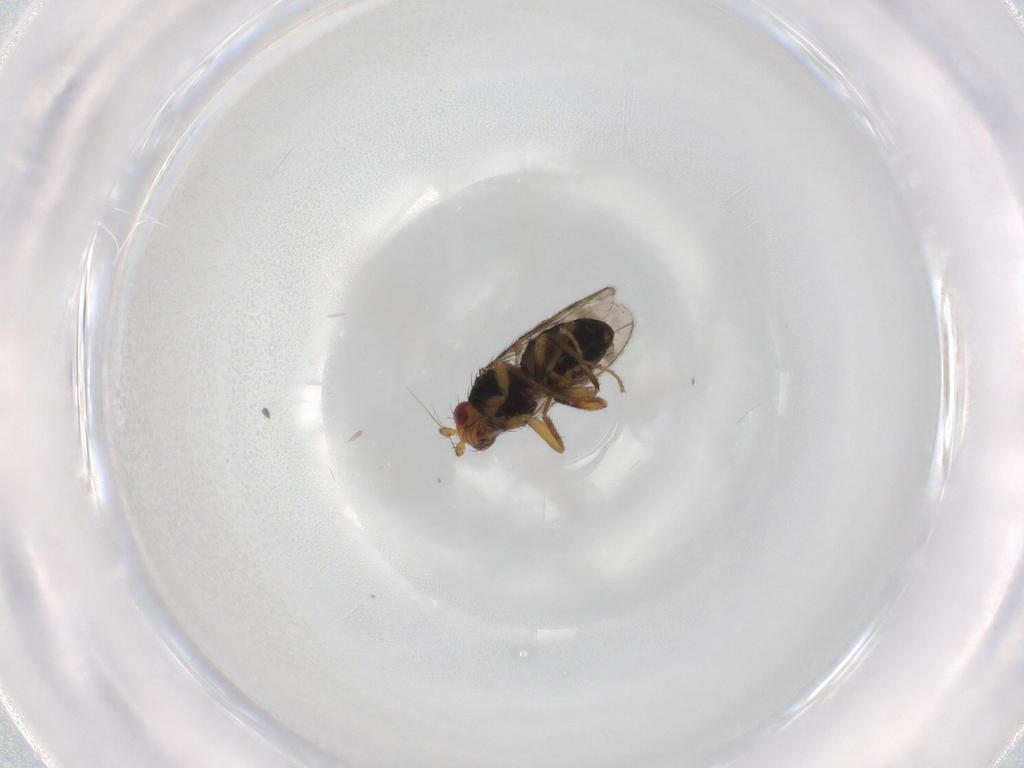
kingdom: Animalia
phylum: Arthropoda
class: Insecta
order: Diptera
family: Sphaeroceridae
